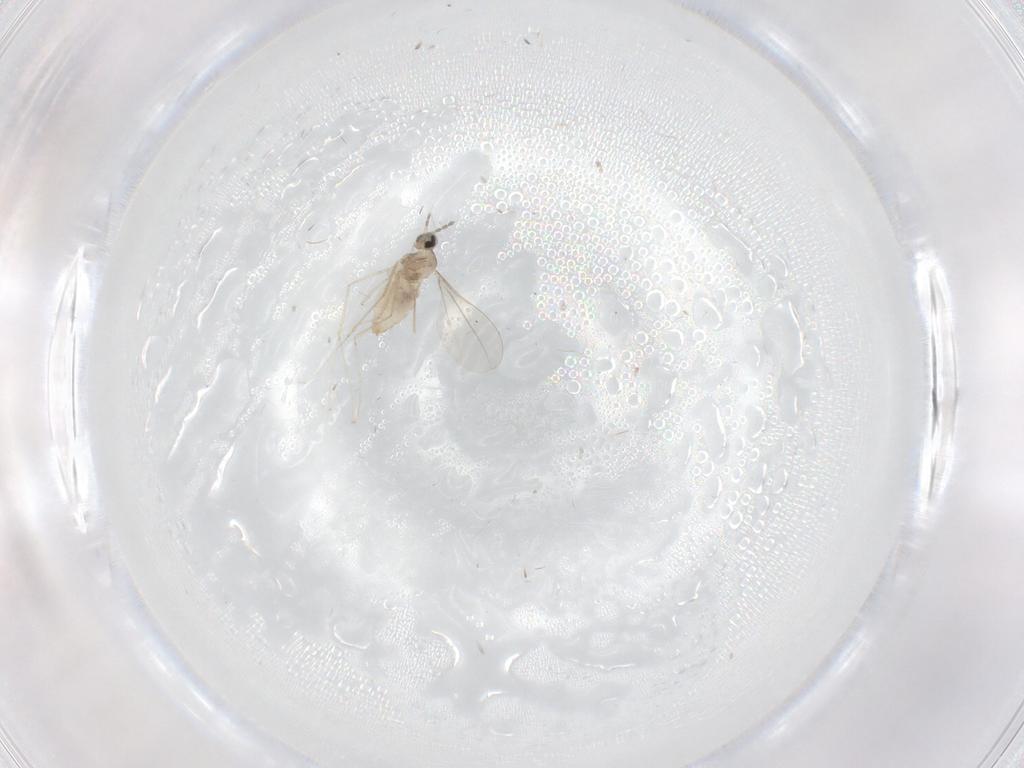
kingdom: Animalia
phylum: Arthropoda
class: Insecta
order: Diptera
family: Cecidomyiidae
